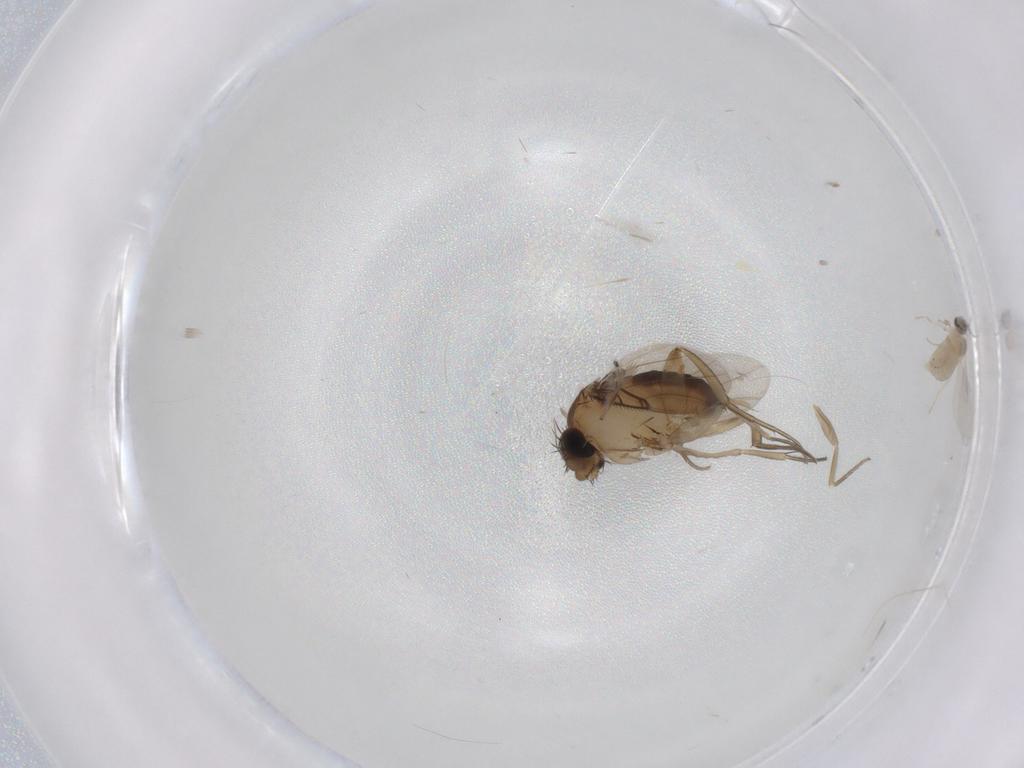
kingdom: Animalia
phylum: Arthropoda
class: Insecta
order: Diptera
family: Phoridae
